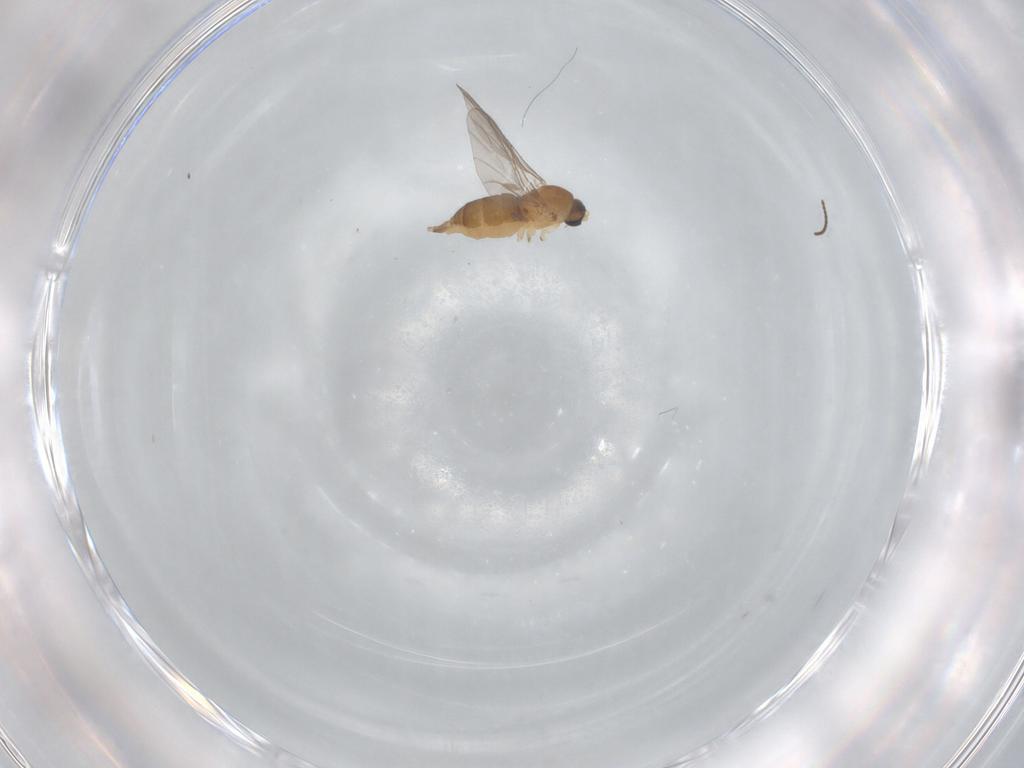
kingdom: Animalia
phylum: Arthropoda
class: Insecta
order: Diptera
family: Sciaridae
